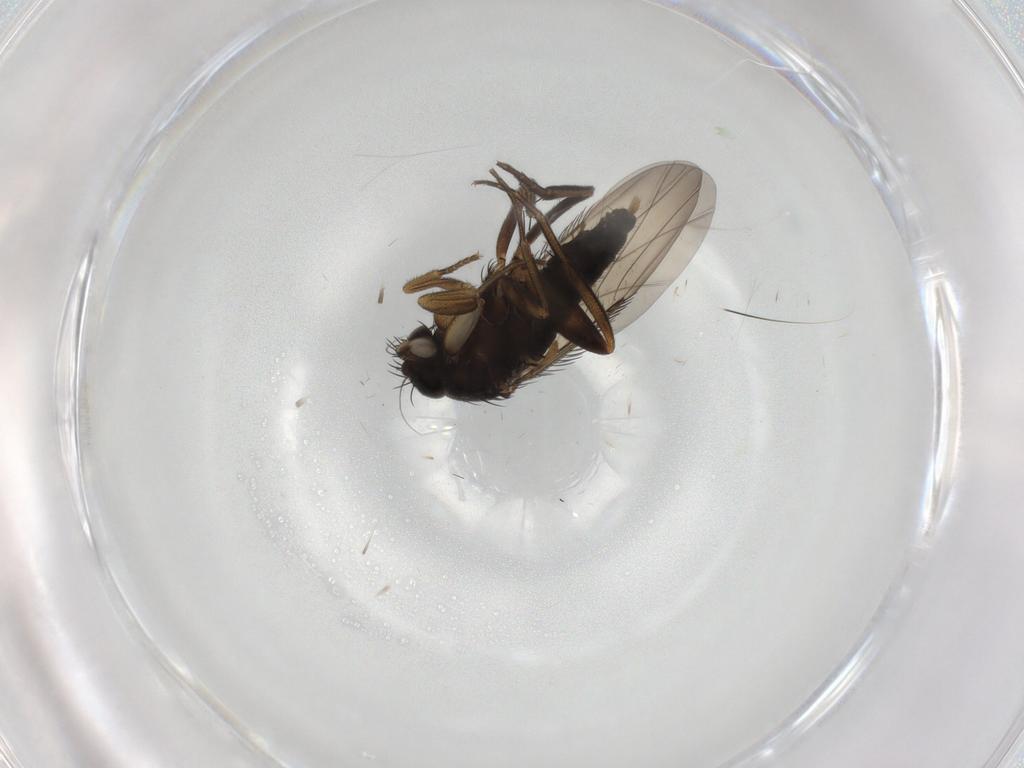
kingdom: Animalia
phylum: Arthropoda
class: Insecta
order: Diptera
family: Phoridae
